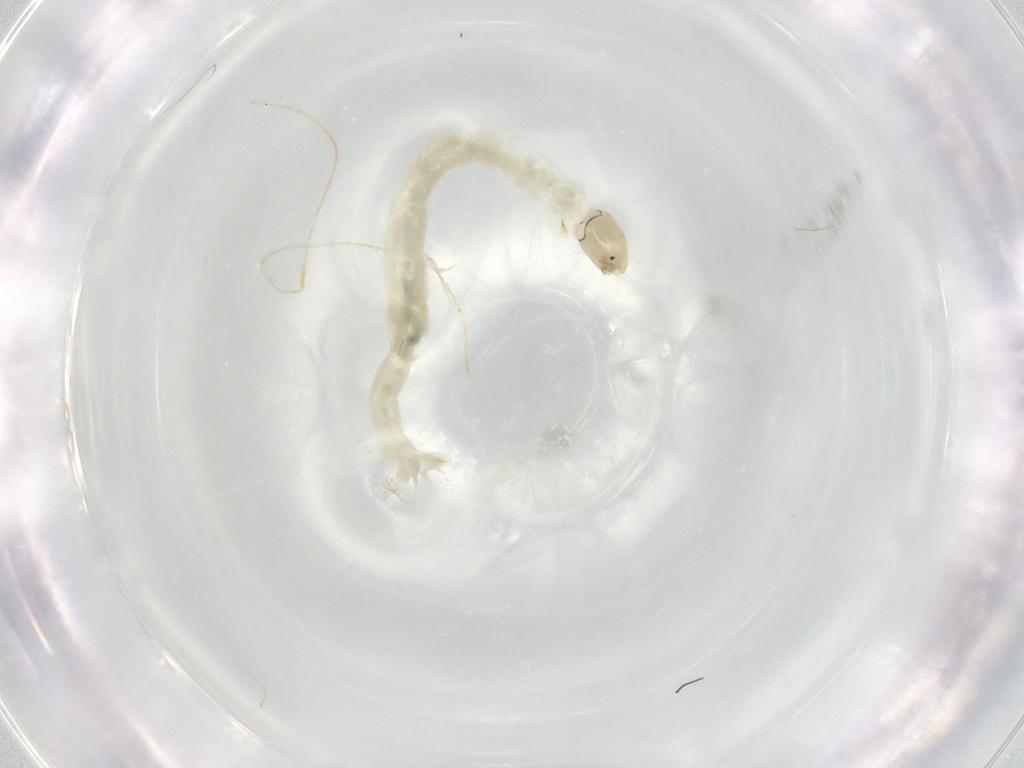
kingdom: Animalia
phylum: Arthropoda
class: Insecta
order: Diptera
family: Chironomidae
